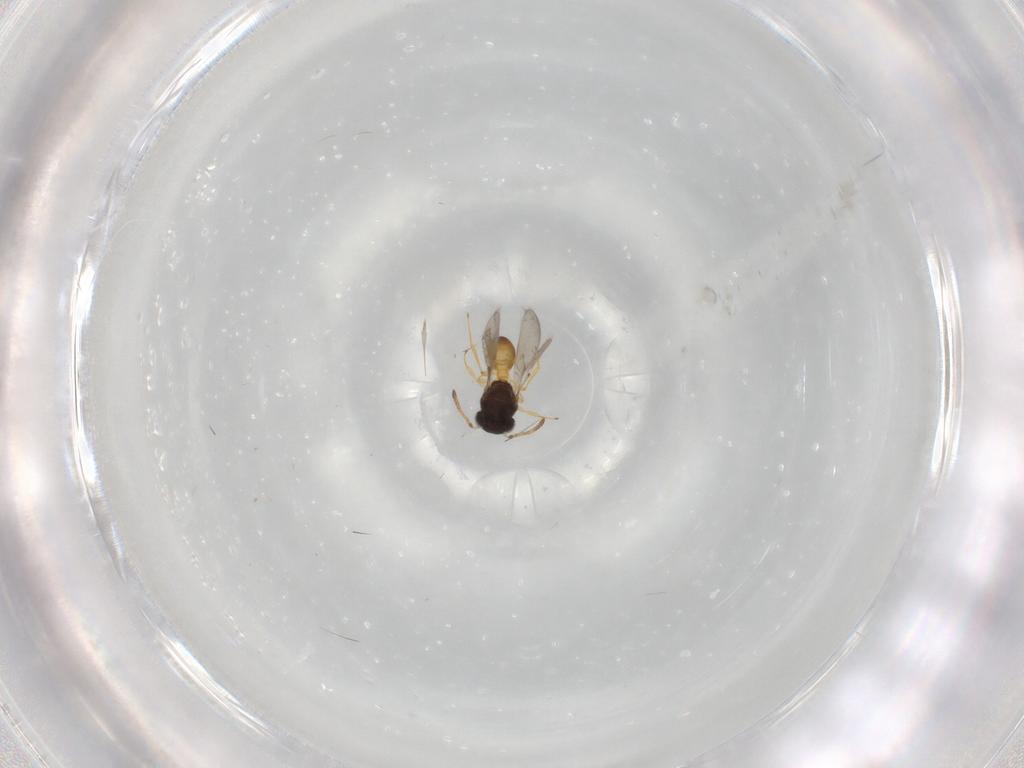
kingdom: Animalia
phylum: Arthropoda
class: Insecta
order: Hymenoptera
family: Scelionidae
